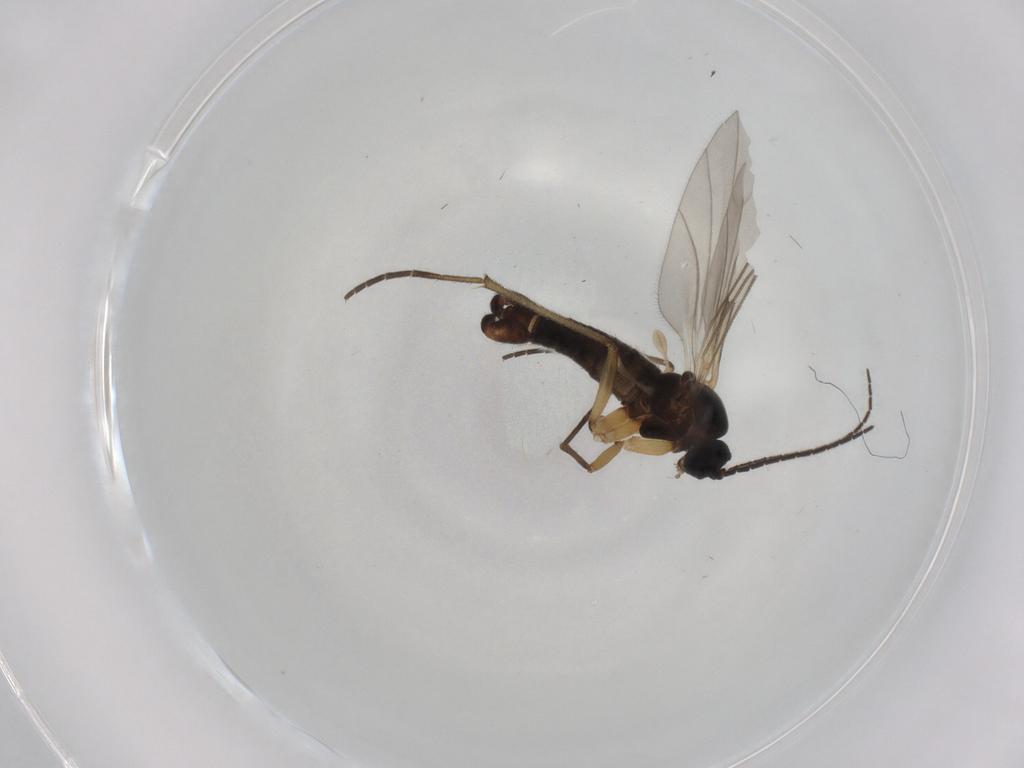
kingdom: Animalia
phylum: Arthropoda
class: Insecta
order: Diptera
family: Sciaridae
